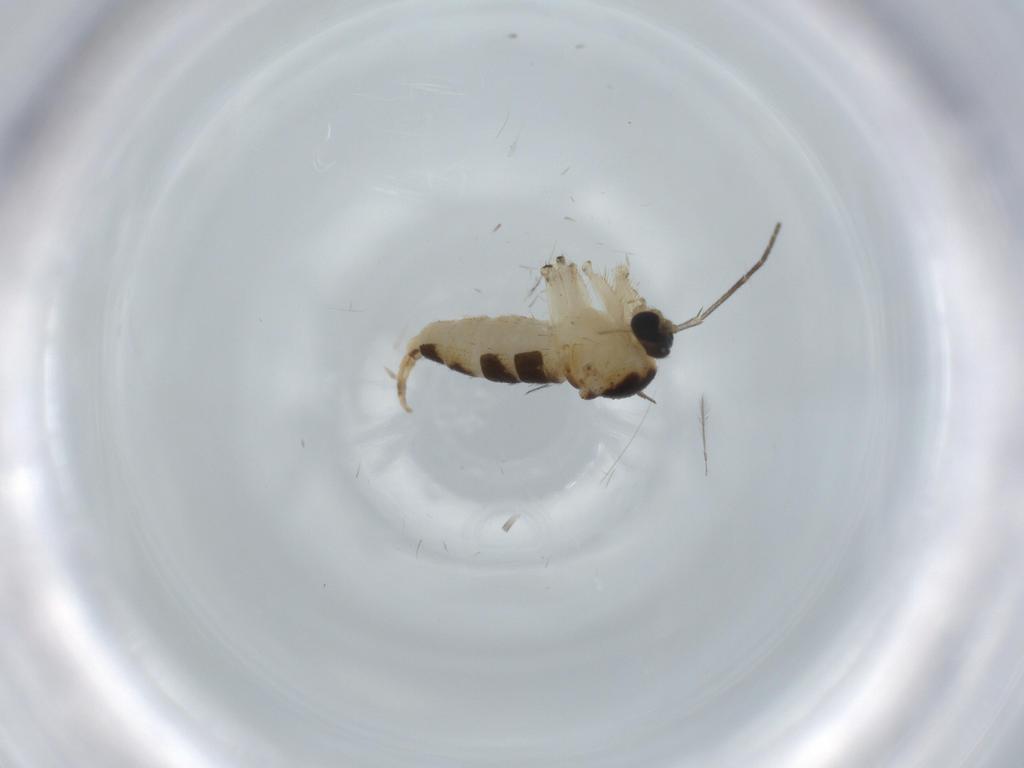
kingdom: Animalia
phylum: Arthropoda
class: Insecta
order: Diptera
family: Sciaridae
